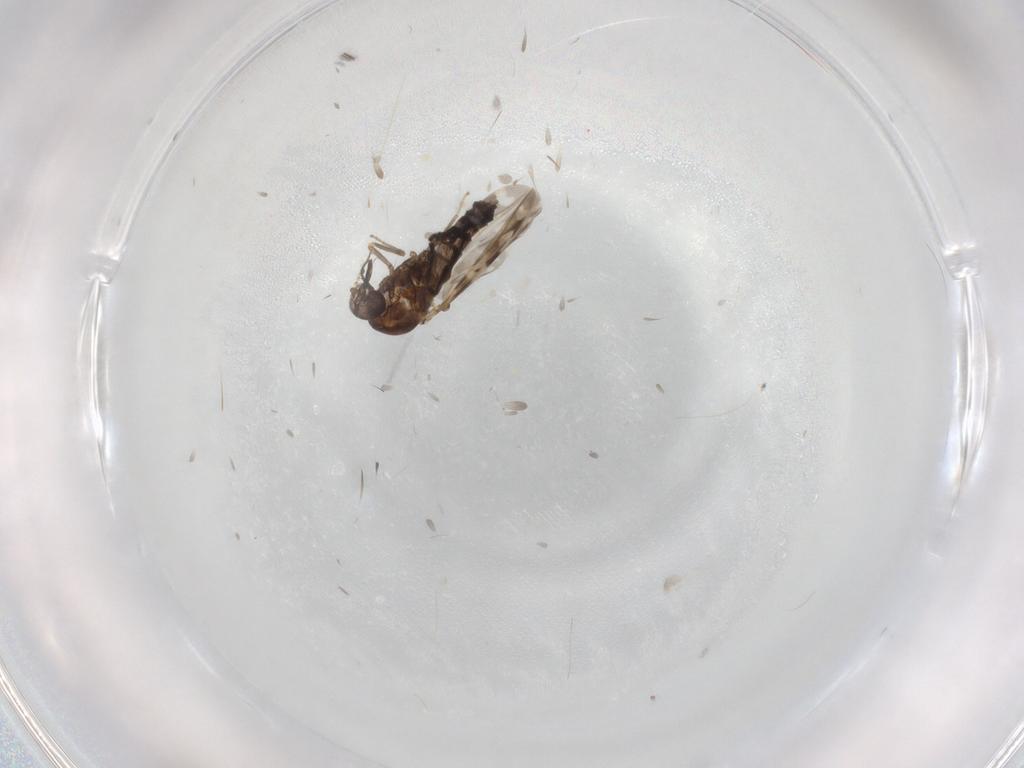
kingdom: Animalia
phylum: Arthropoda
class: Insecta
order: Diptera
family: Ceratopogonidae
